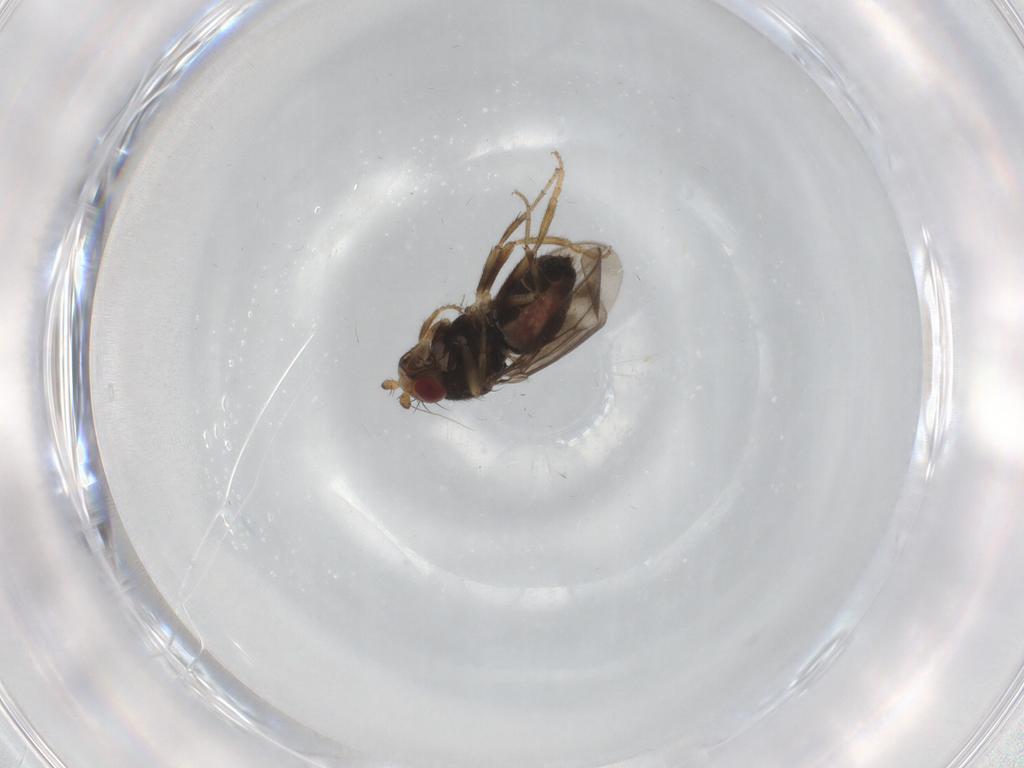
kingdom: Animalia
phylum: Arthropoda
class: Insecta
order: Diptera
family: Sphaeroceridae
